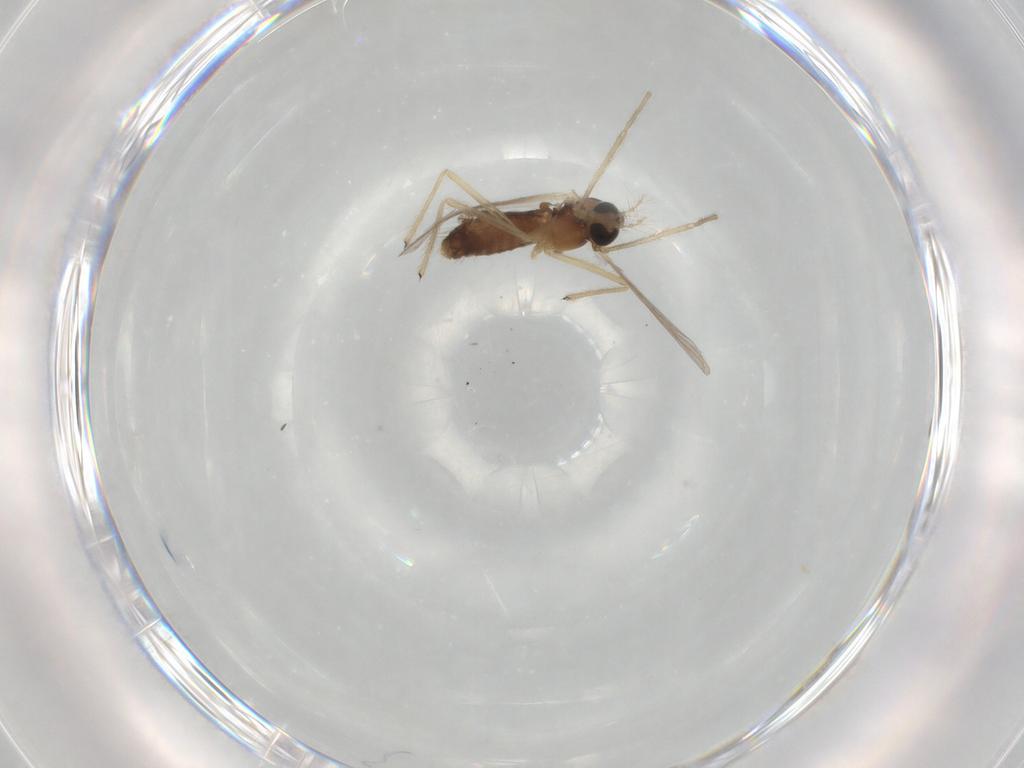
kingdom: Animalia
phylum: Arthropoda
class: Insecta
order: Diptera
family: Chironomidae
